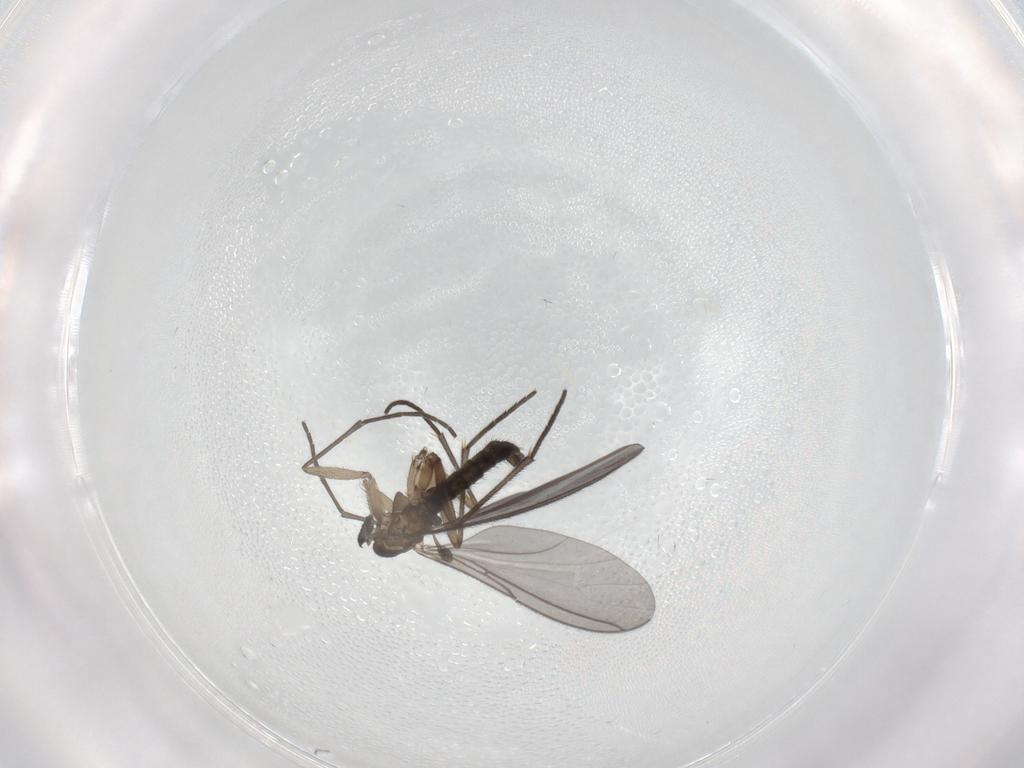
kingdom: Animalia
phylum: Arthropoda
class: Insecta
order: Diptera
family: Sciaridae
